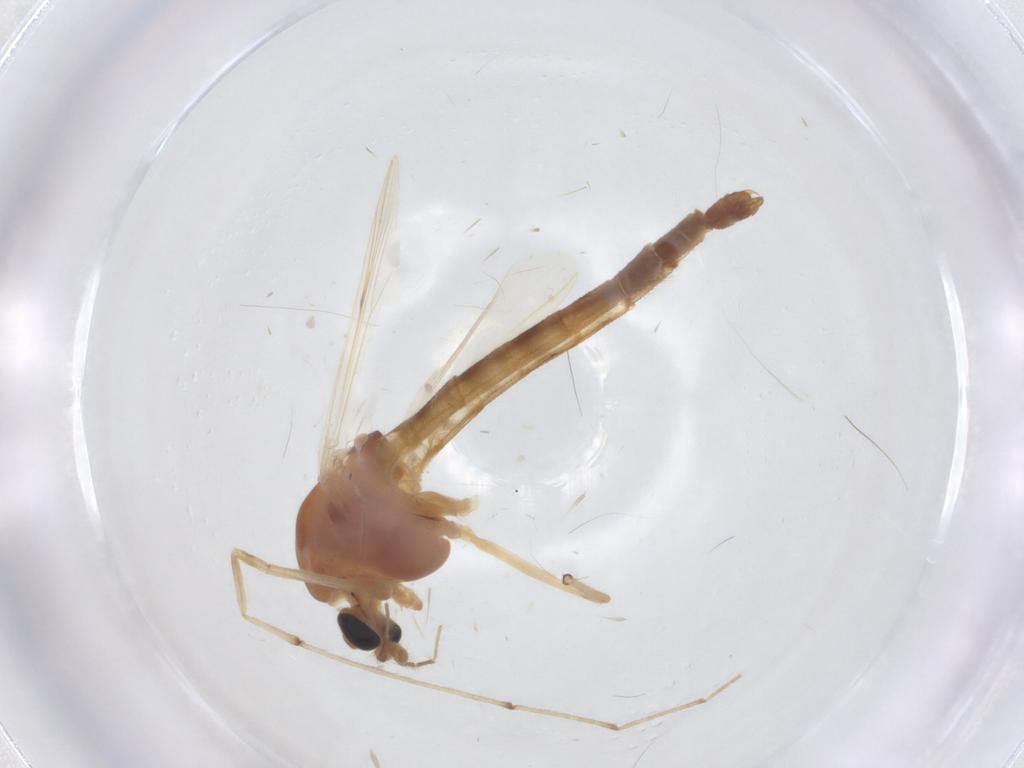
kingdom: Animalia
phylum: Arthropoda
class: Insecta
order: Diptera
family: Chironomidae
